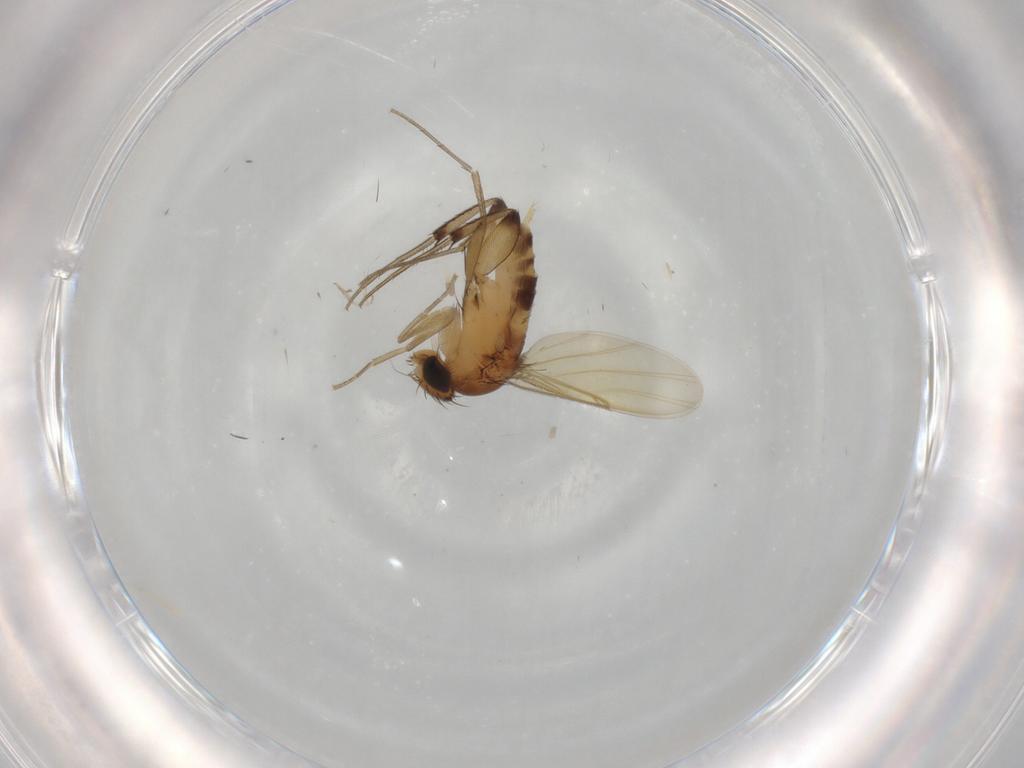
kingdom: Animalia
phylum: Arthropoda
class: Insecta
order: Diptera
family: Phoridae
